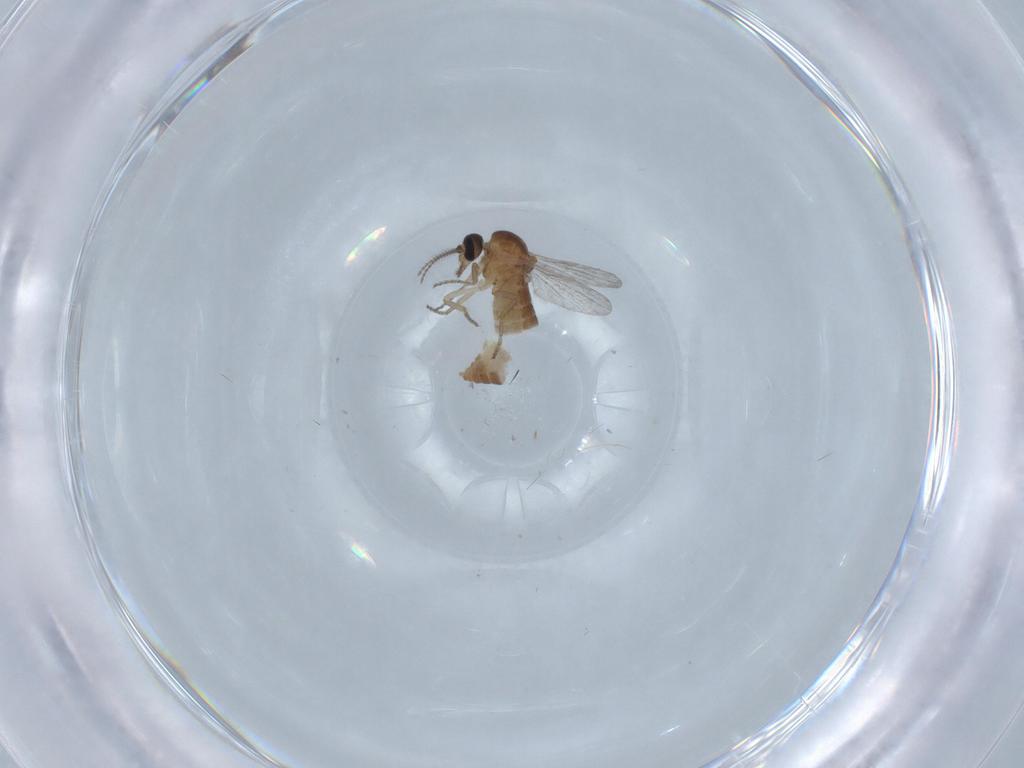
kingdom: Animalia
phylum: Arthropoda
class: Insecta
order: Diptera
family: Ceratopogonidae
